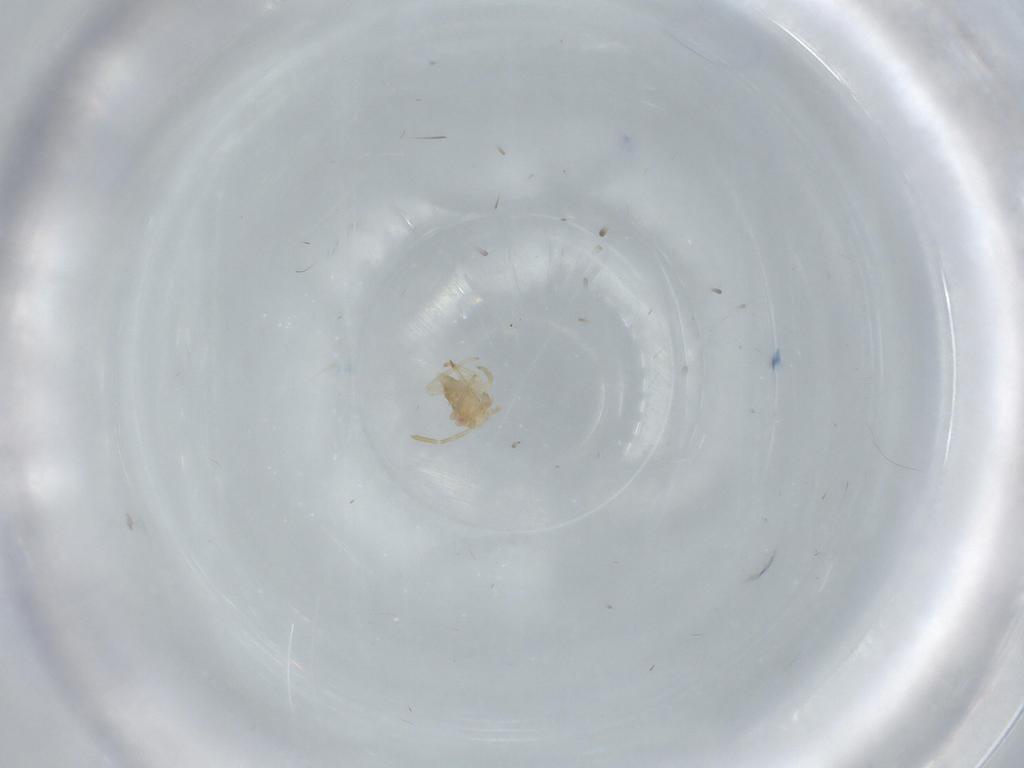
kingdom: Animalia
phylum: Arthropoda
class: Insecta
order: Hemiptera
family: Miridae
